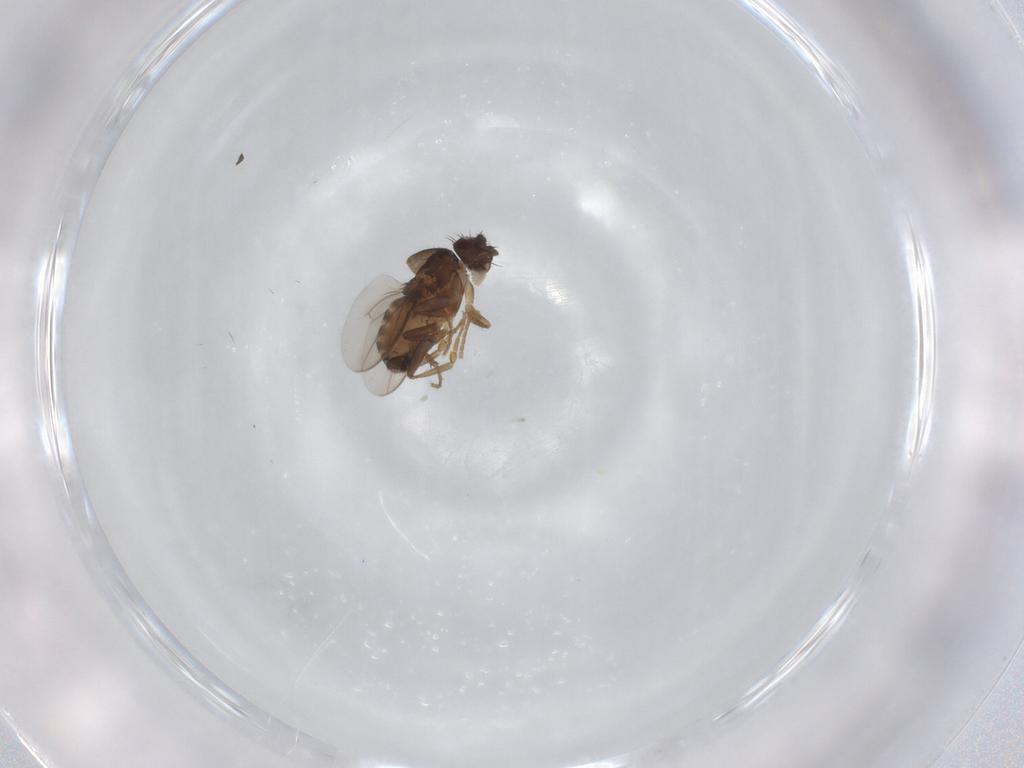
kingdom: Animalia
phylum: Arthropoda
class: Insecta
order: Diptera
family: Sphaeroceridae
